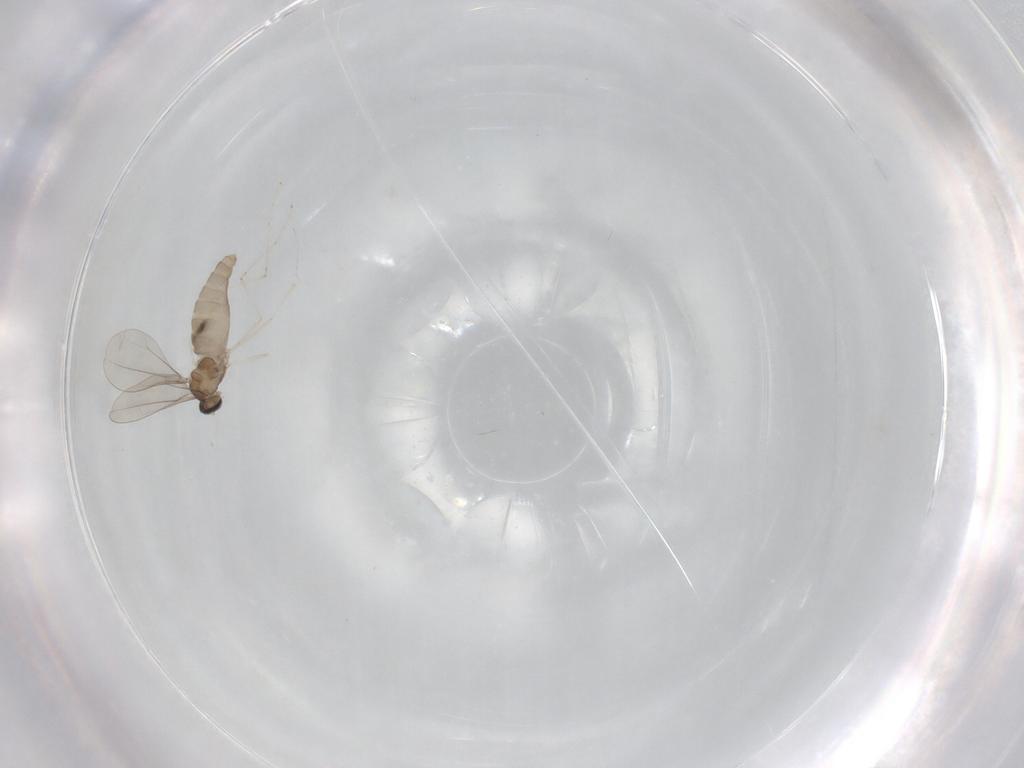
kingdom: Animalia
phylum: Arthropoda
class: Insecta
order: Diptera
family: Cecidomyiidae
